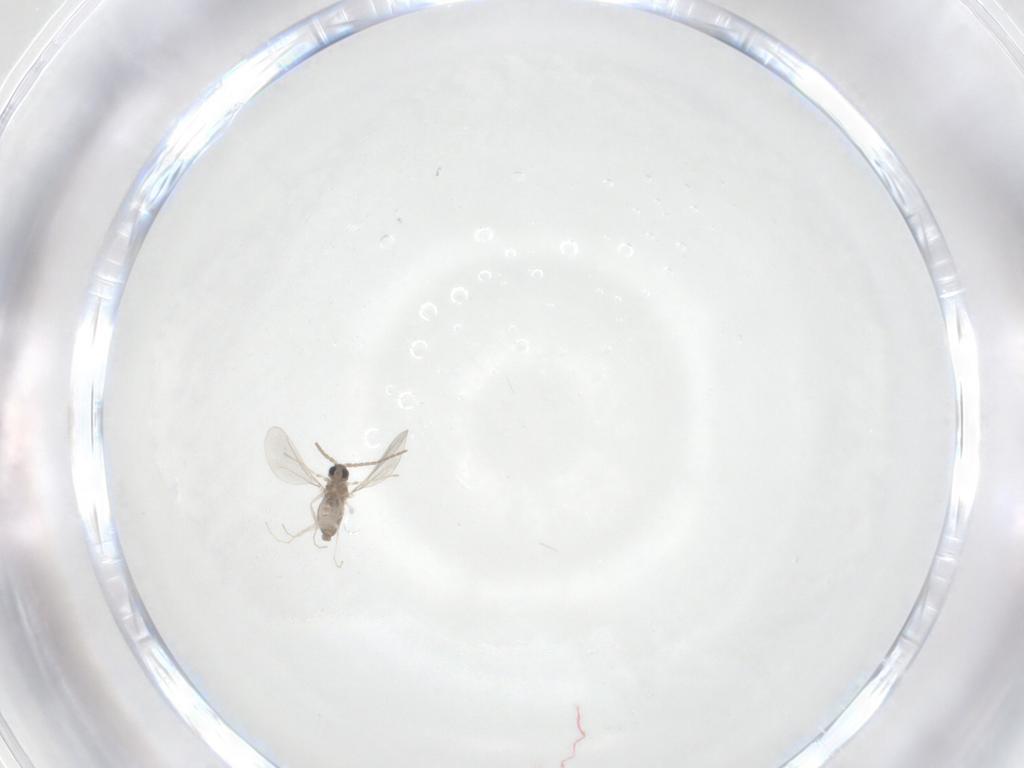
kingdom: Animalia
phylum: Arthropoda
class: Insecta
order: Diptera
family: Cecidomyiidae
